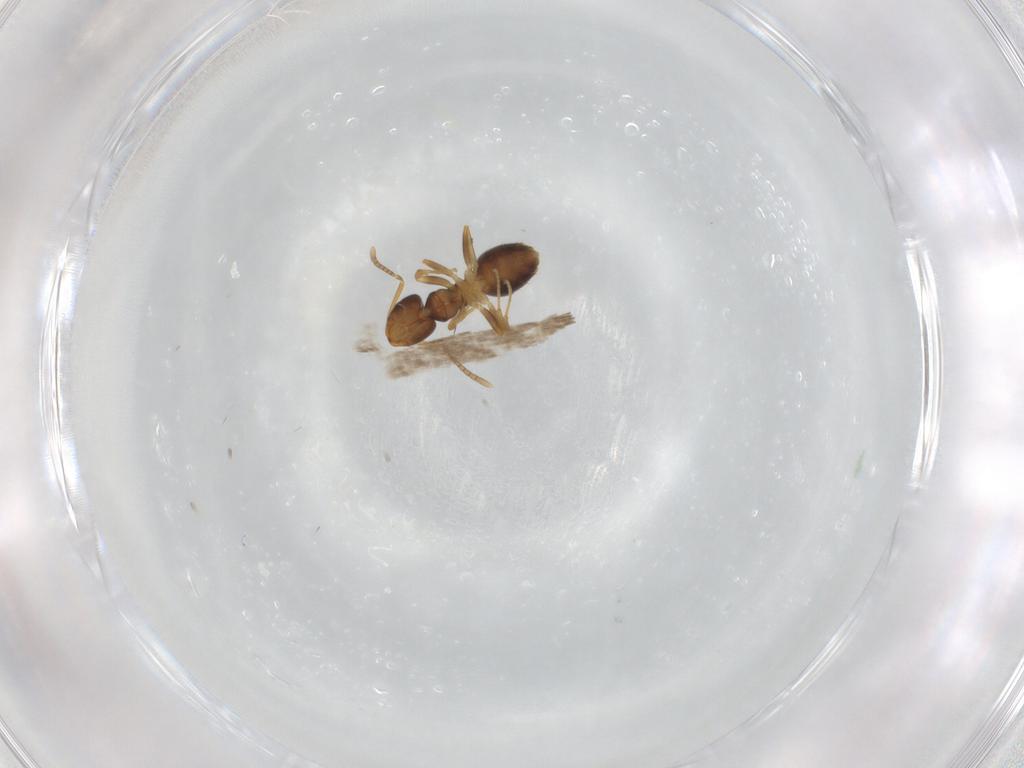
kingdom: Animalia
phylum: Arthropoda
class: Insecta
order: Hymenoptera
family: Formicidae
